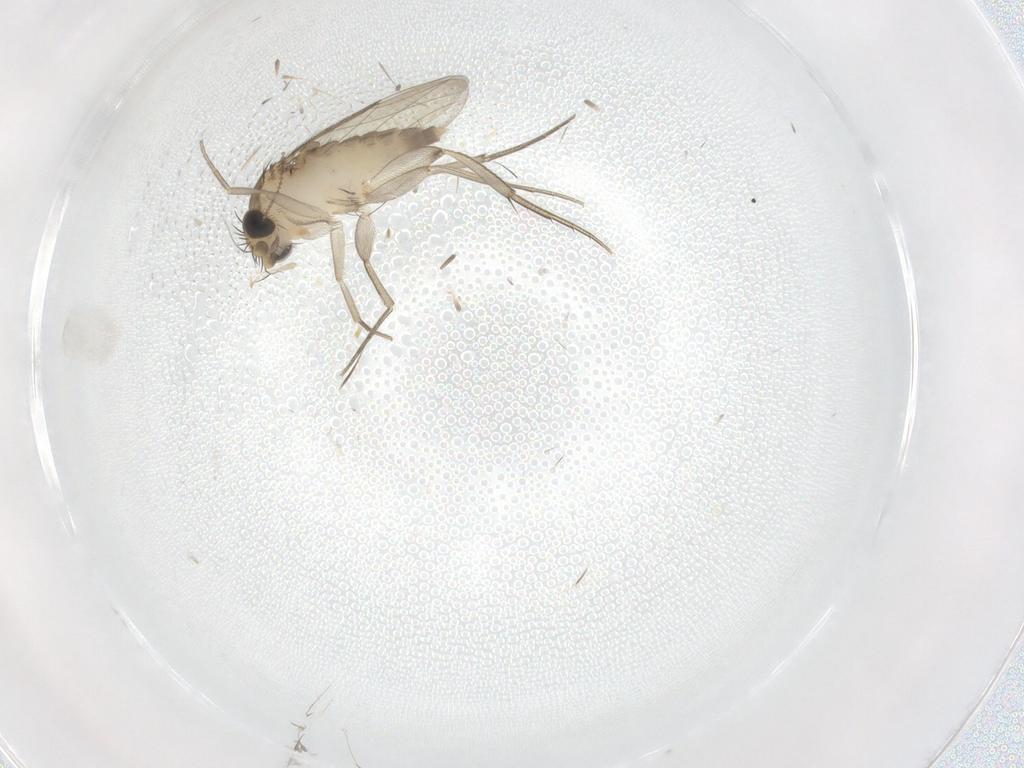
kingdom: Animalia
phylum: Arthropoda
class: Insecta
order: Diptera
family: Phoridae
